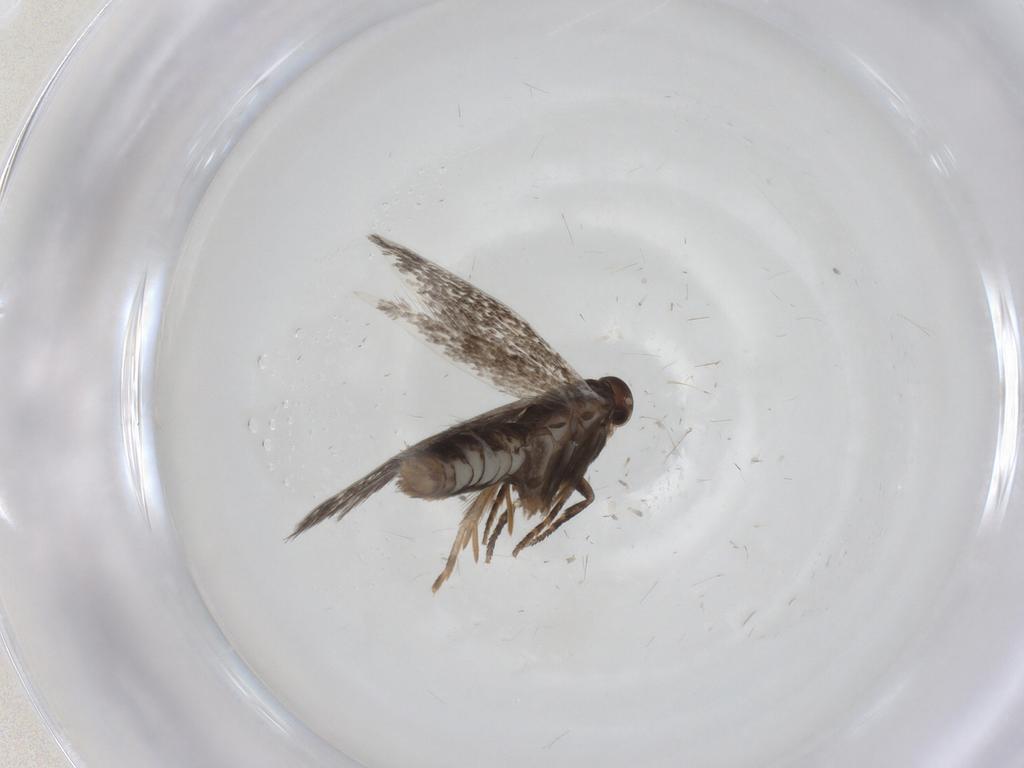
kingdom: Animalia
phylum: Arthropoda
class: Insecta
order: Lepidoptera
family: Elachistidae
